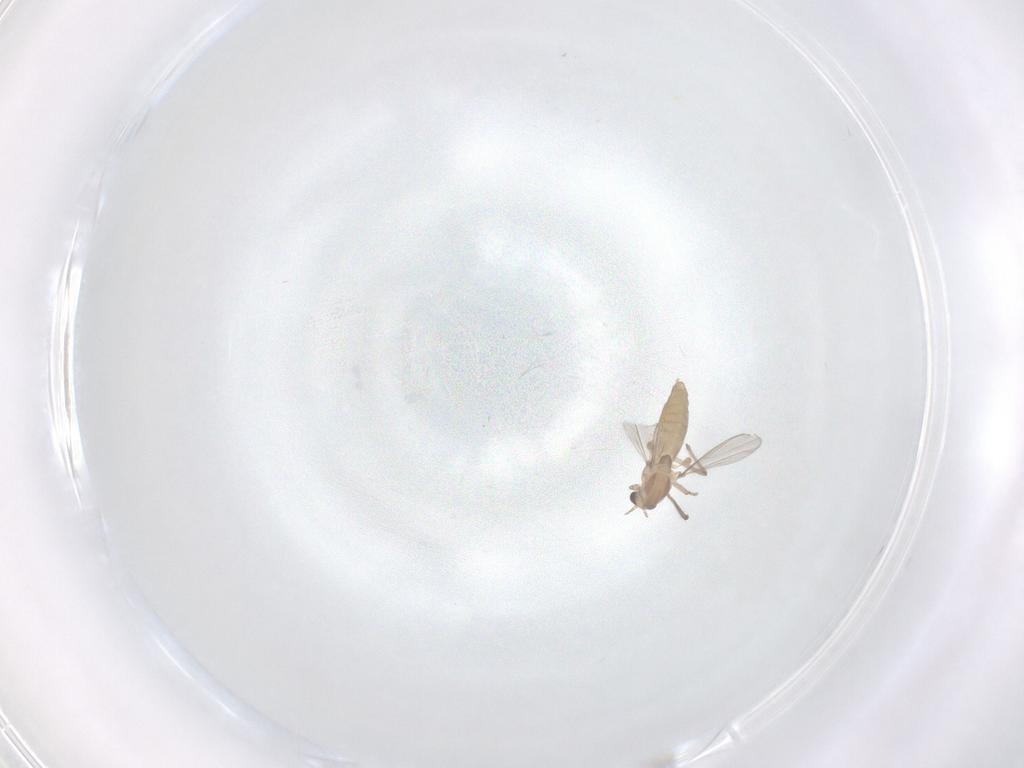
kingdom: Animalia
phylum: Arthropoda
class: Insecta
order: Diptera
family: Chironomidae
